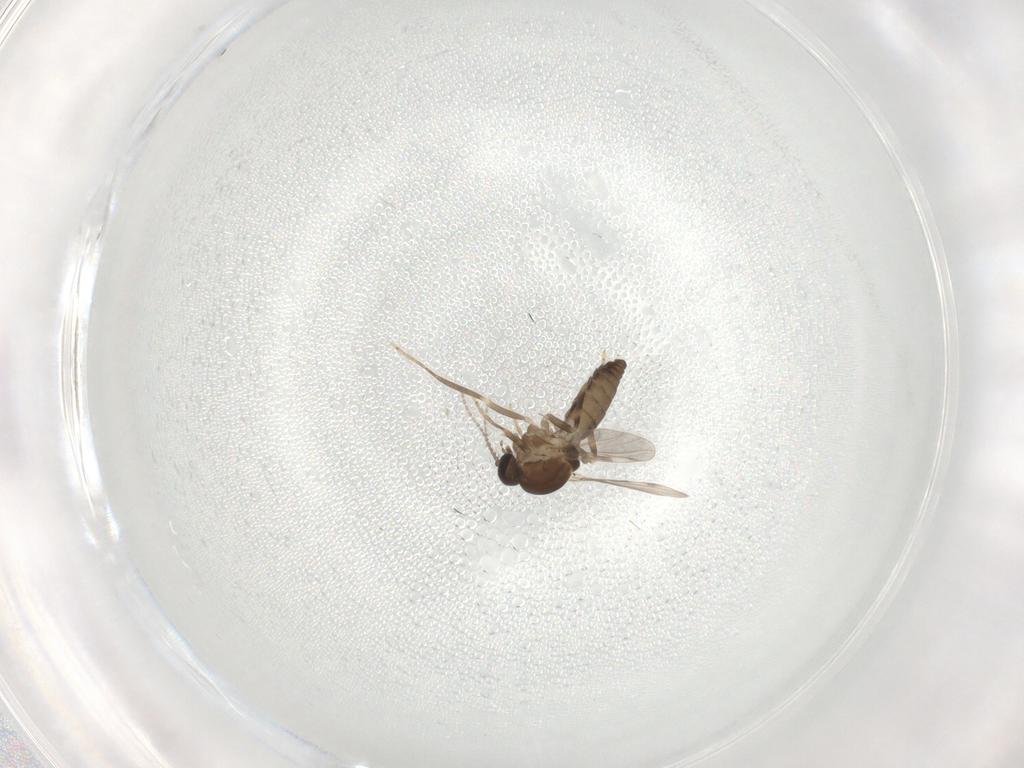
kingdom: Animalia
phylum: Arthropoda
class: Insecta
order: Diptera
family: Ceratopogonidae
